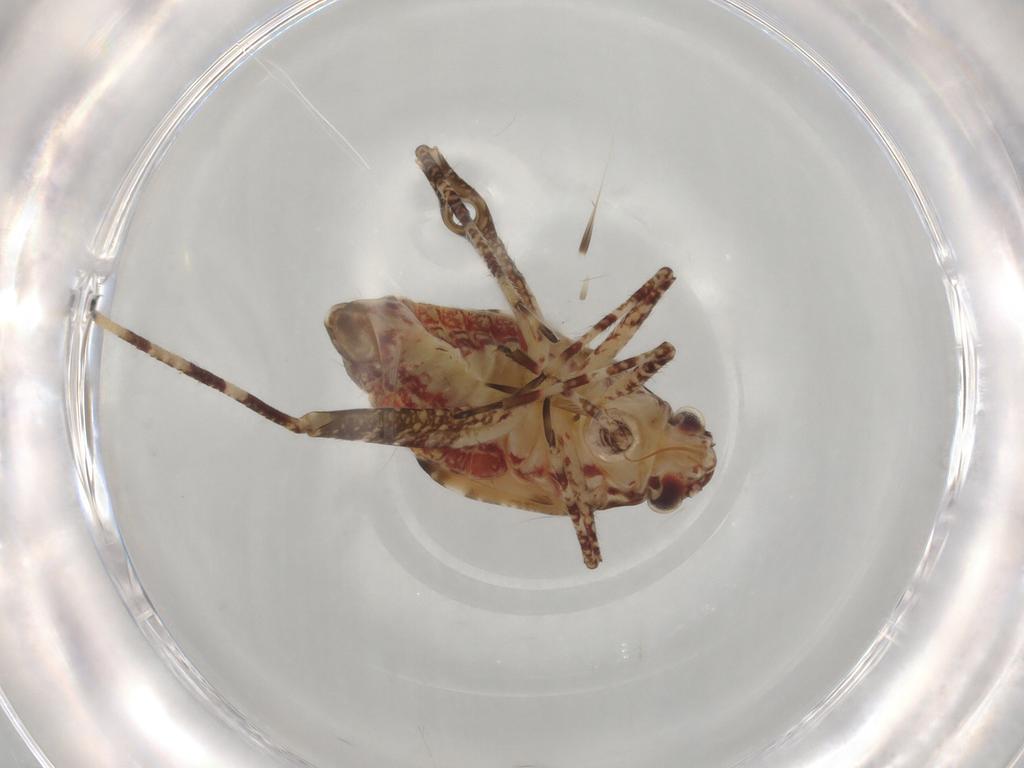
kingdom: Animalia
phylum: Arthropoda
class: Insecta
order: Hemiptera
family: Miridae
